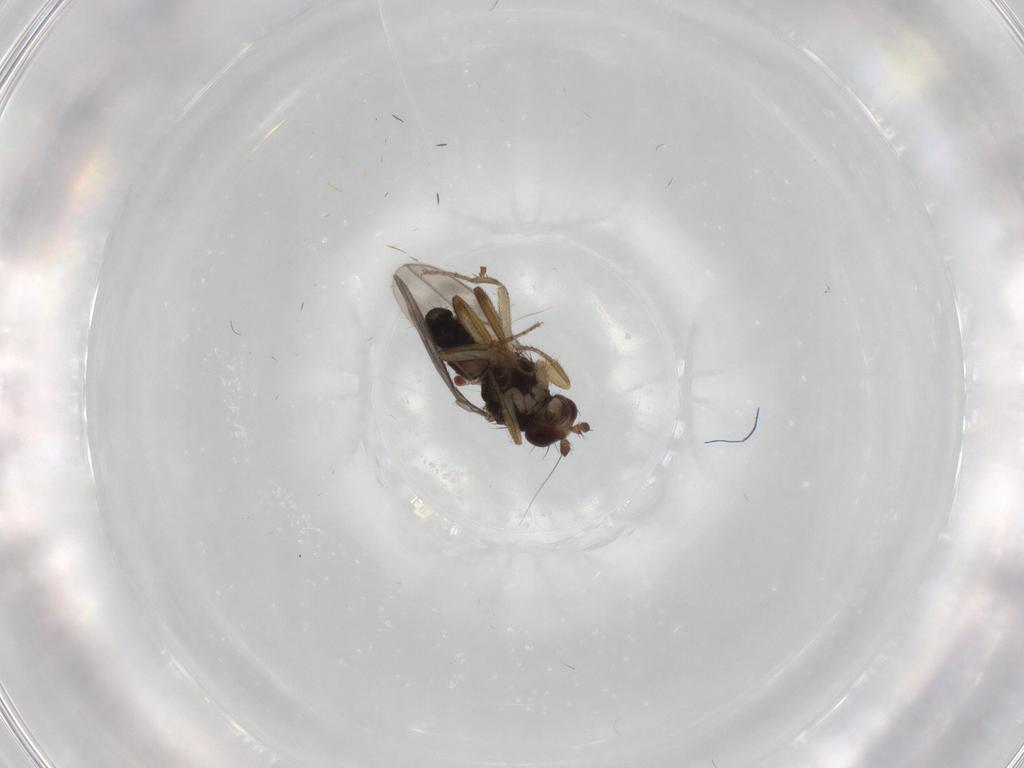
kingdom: Animalia
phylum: Arthropoda
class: Insecta
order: Diptera
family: Sphaeroceridae
